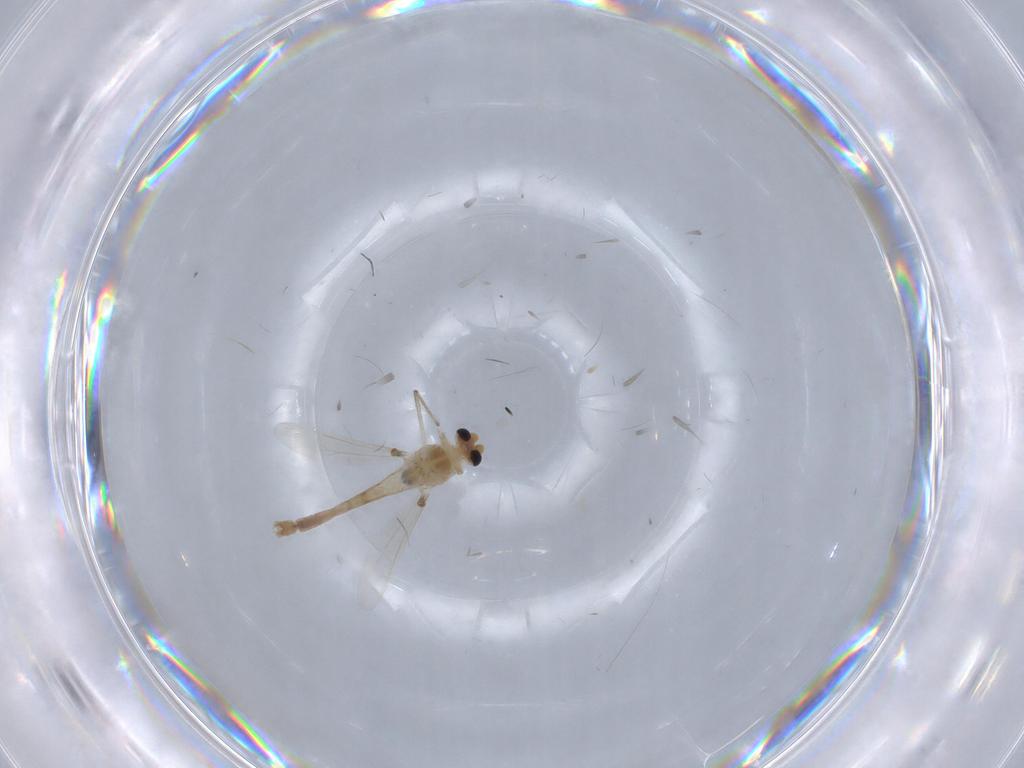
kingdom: Animalia
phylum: Arthropoda
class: Insecta
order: Diptera
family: Chironomidae
